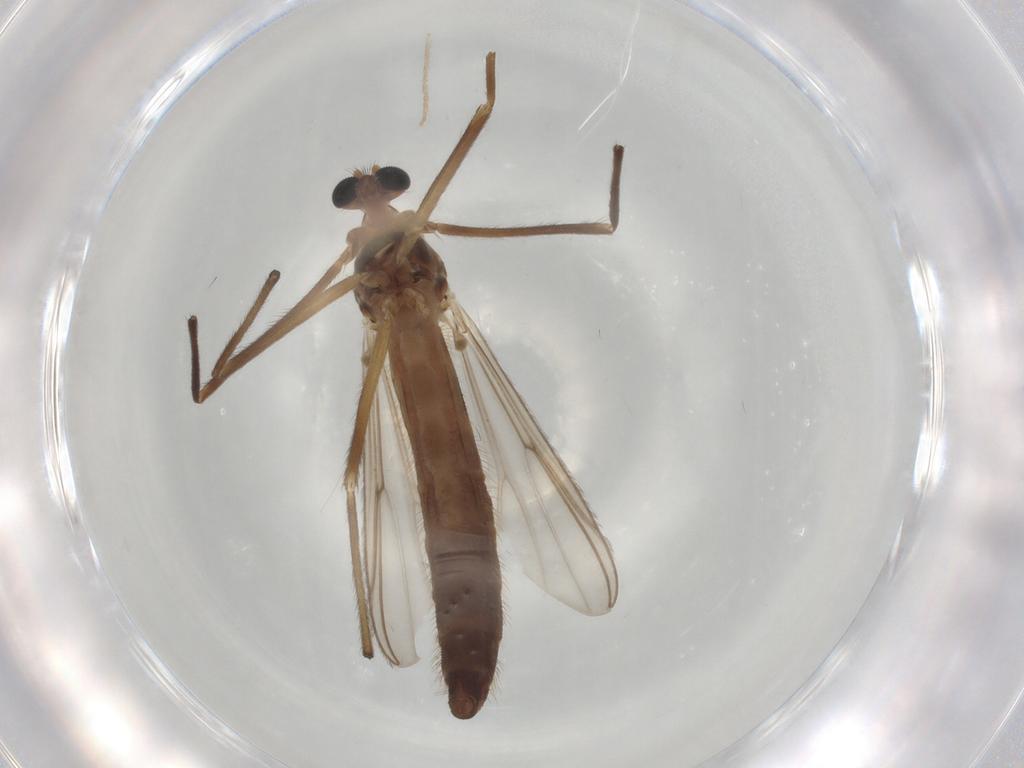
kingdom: Animalia
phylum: Arthropoda
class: Insecta
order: Diptera
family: Chironomidae
